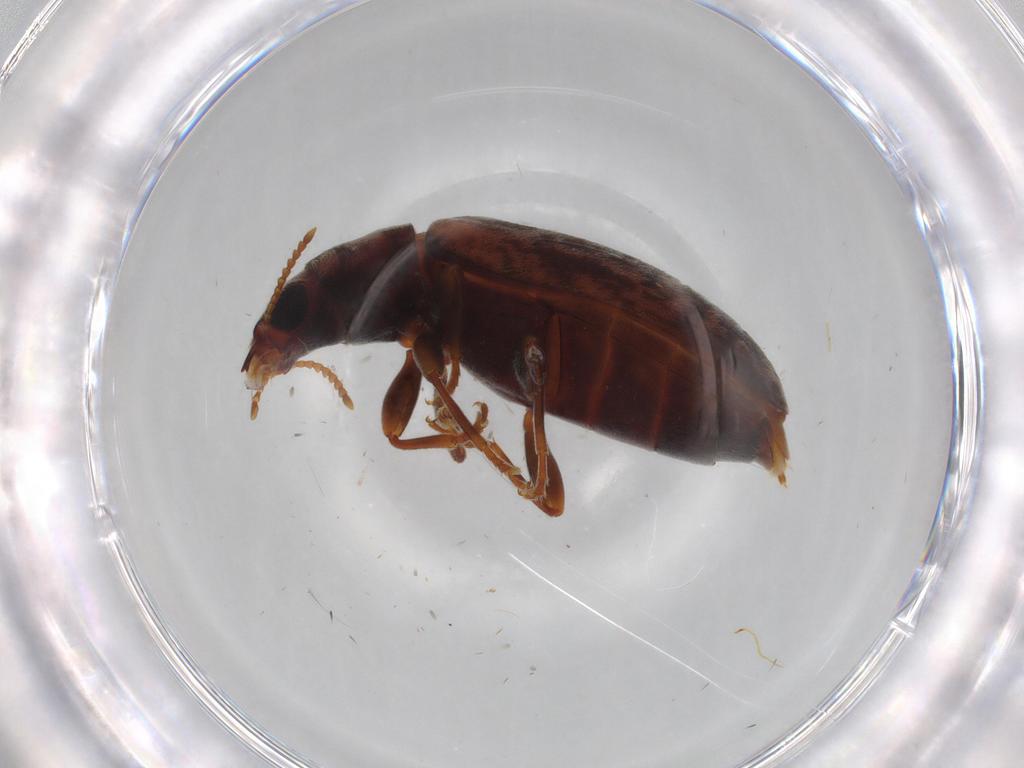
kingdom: Animalia
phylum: Arthropoda
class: Insecta
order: Coleoptera
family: Mycteridae
